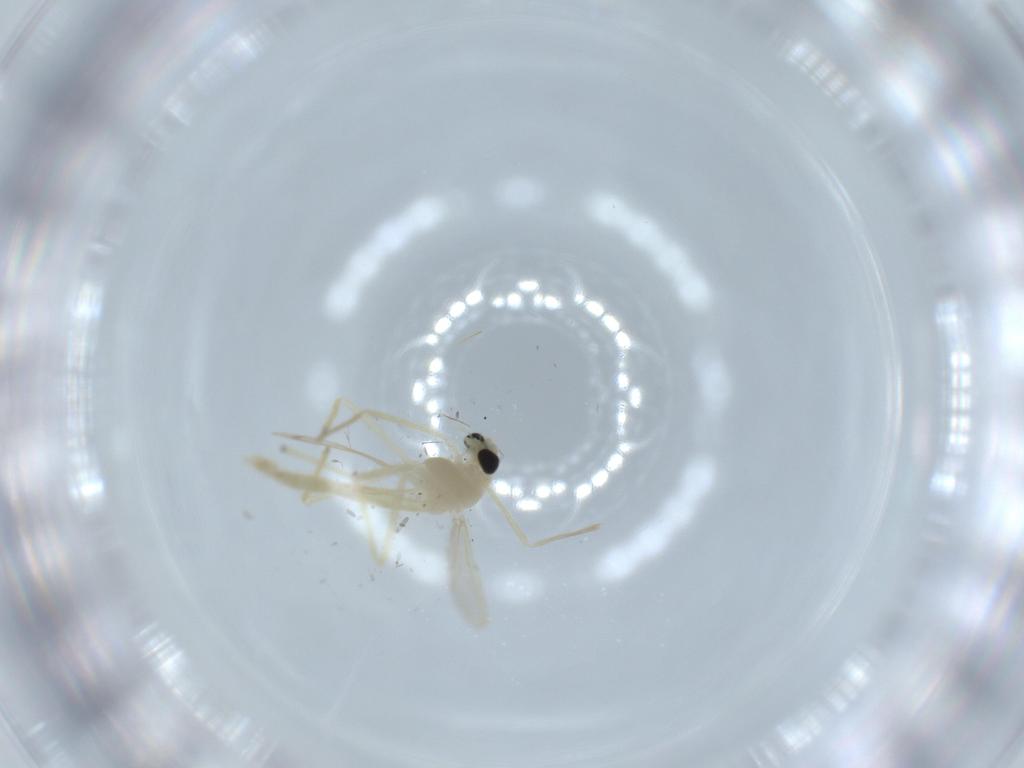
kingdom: Animalia
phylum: Arthropoda
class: Insecta
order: Diptera
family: Chironomidae
